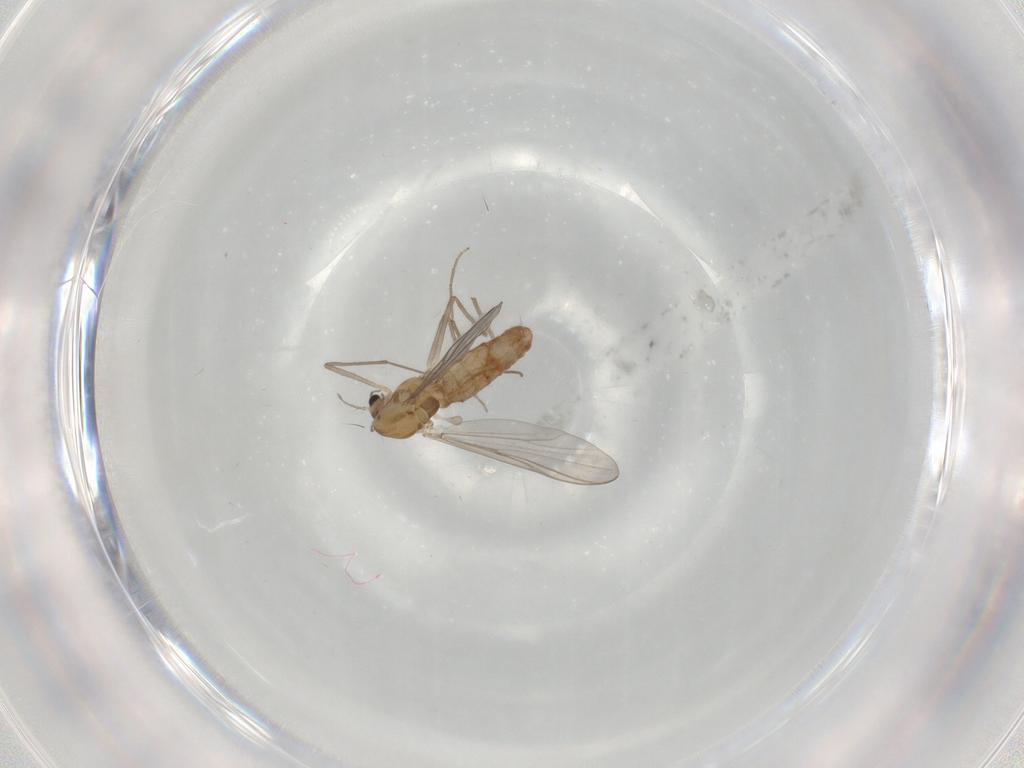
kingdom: Animalia
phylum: Arthropoda
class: Insecta
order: Diptera
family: Chironomidae
